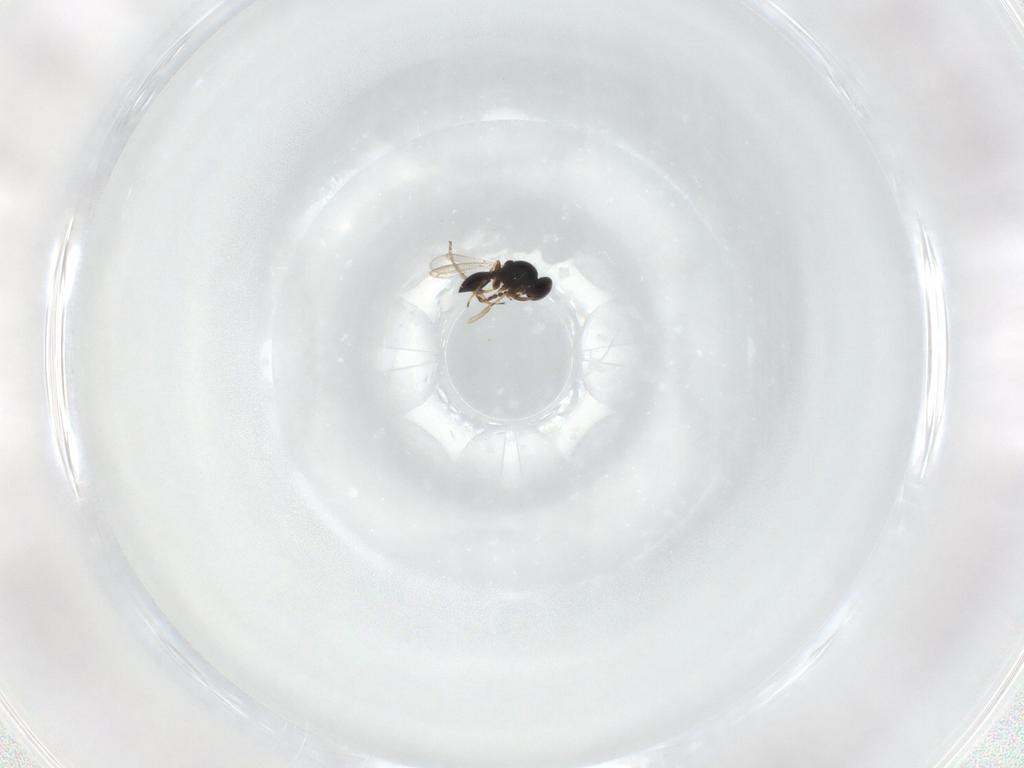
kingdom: Animalia
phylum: Arthropoda
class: Insecta
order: Hymenoptera
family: Platygastridae
